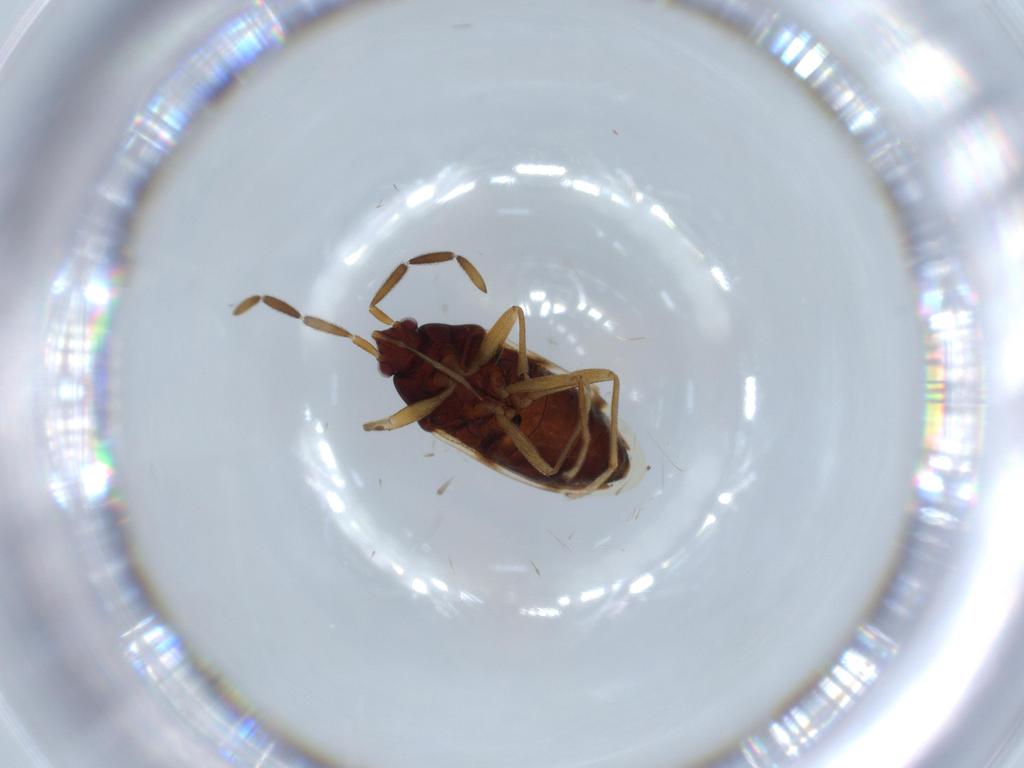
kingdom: Animalia
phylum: Arthropoda
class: Insecta
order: Hemiptera
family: Rhyparochromidae
